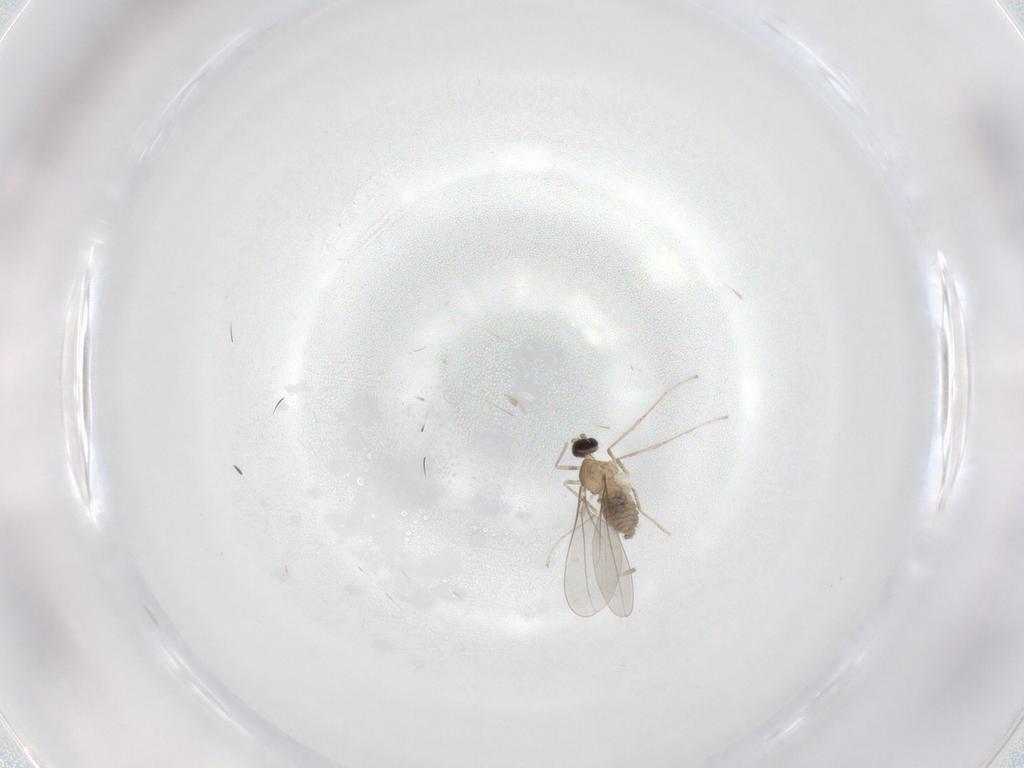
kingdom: Animalia
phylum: Arthropoda
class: Insecta
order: Diptera
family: Cecidomyiidae
